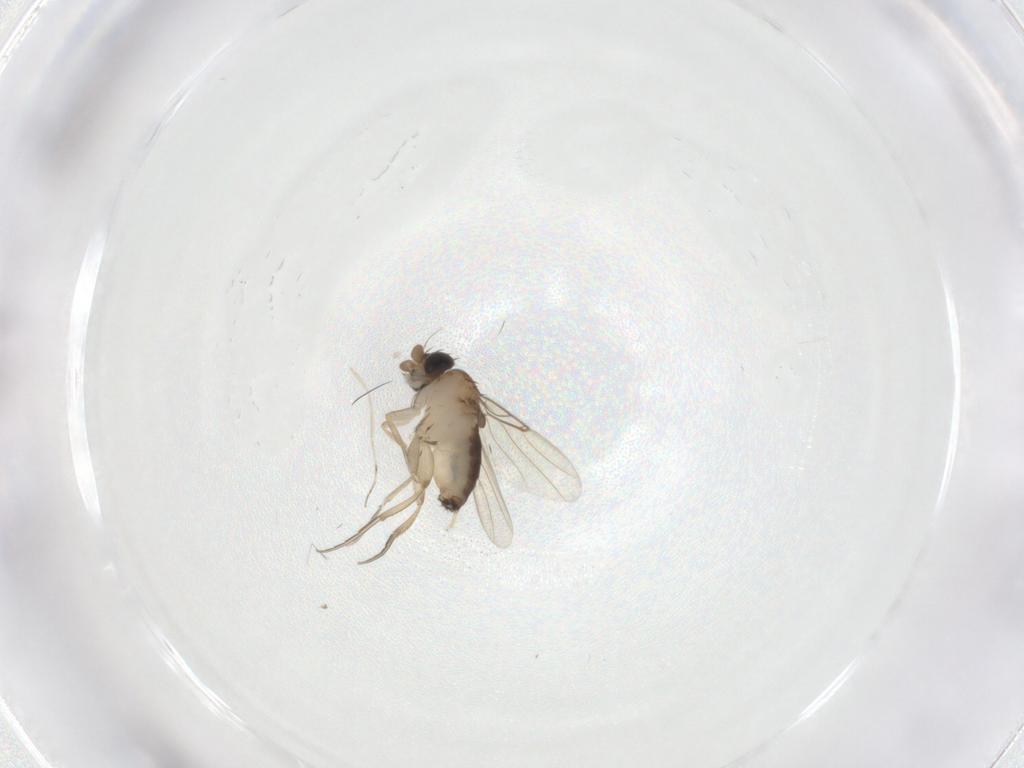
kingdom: Animalia
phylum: Arthropoda
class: Insecta
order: Diptera
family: Phoridae
